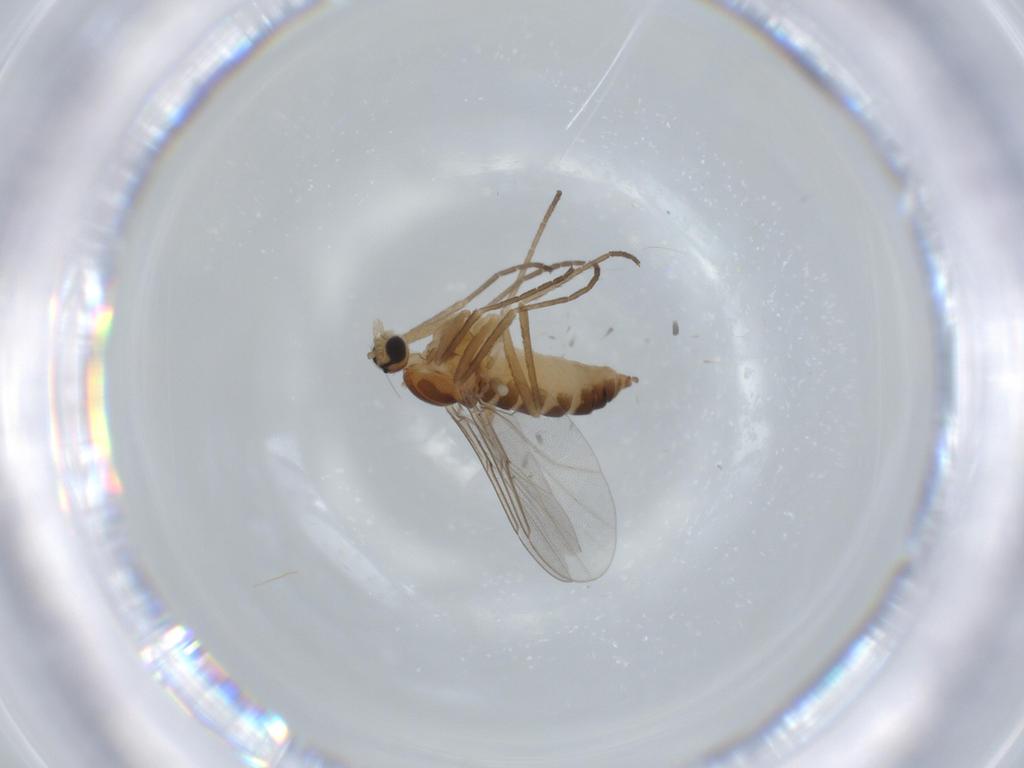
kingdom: Animalia
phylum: Arthropoda
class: Insecta
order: Diptera
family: Cecidomyiidae
